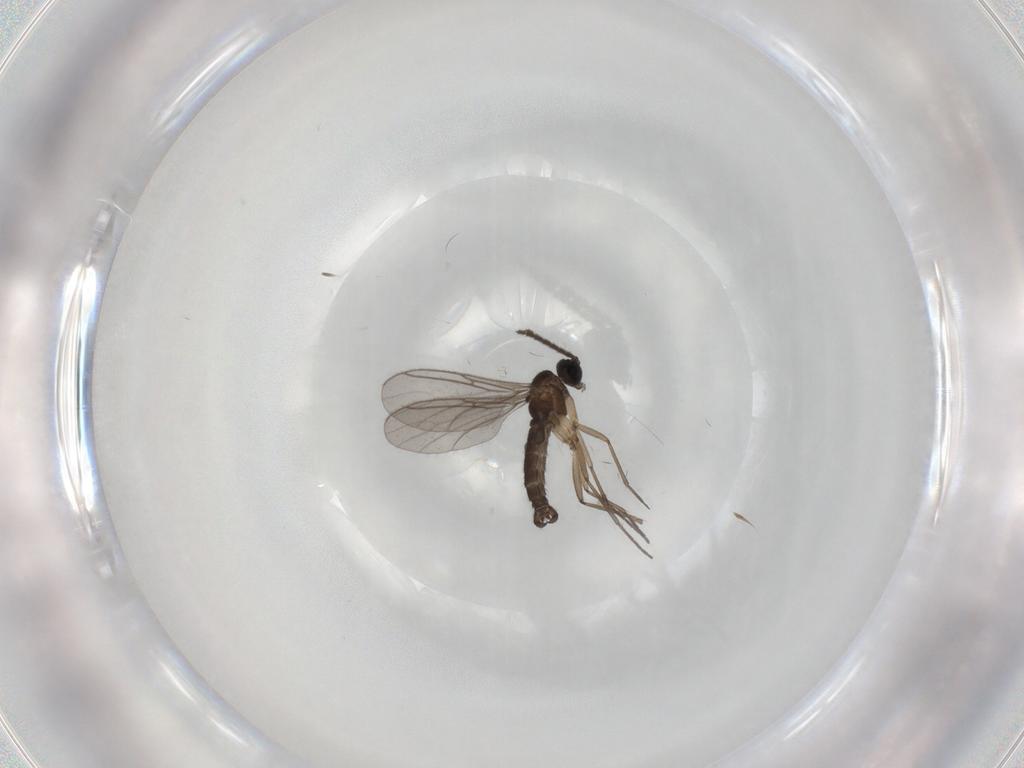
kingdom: Animalia
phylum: Arthropoda
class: Insecta
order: Diptera
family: Sciaridae
